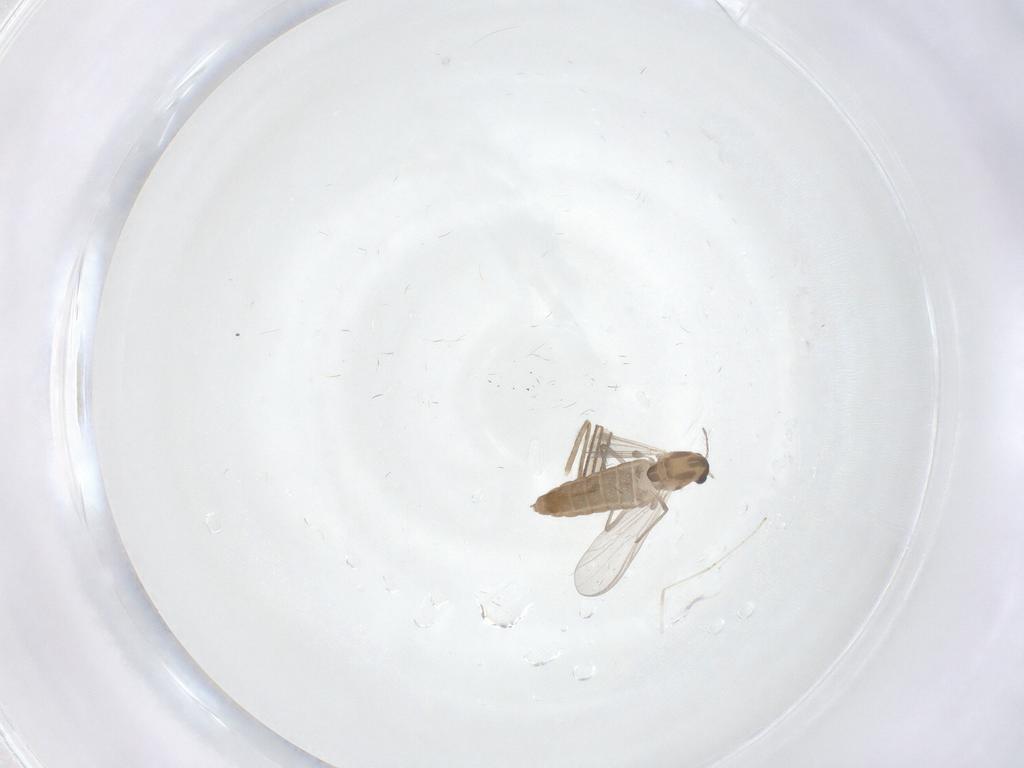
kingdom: Animalia
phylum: Arthropoda
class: Insecta
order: Diptera
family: Chironomidae
